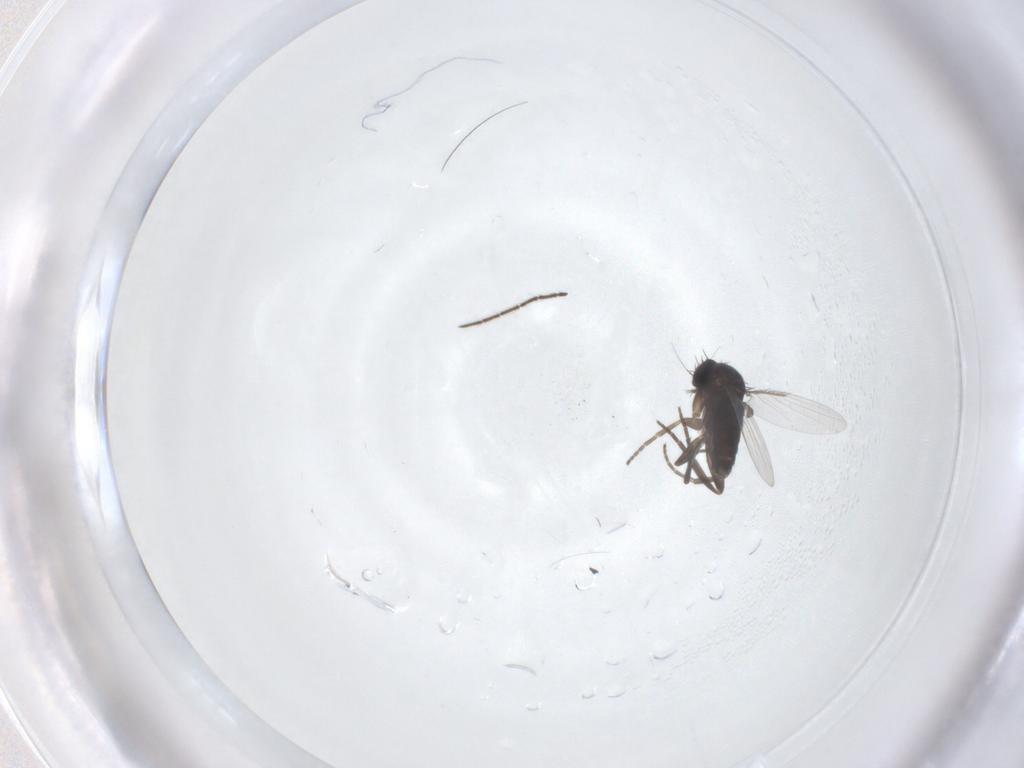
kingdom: Animalia
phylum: Arthropoda
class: Insecta
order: Diptera
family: Phoridae
